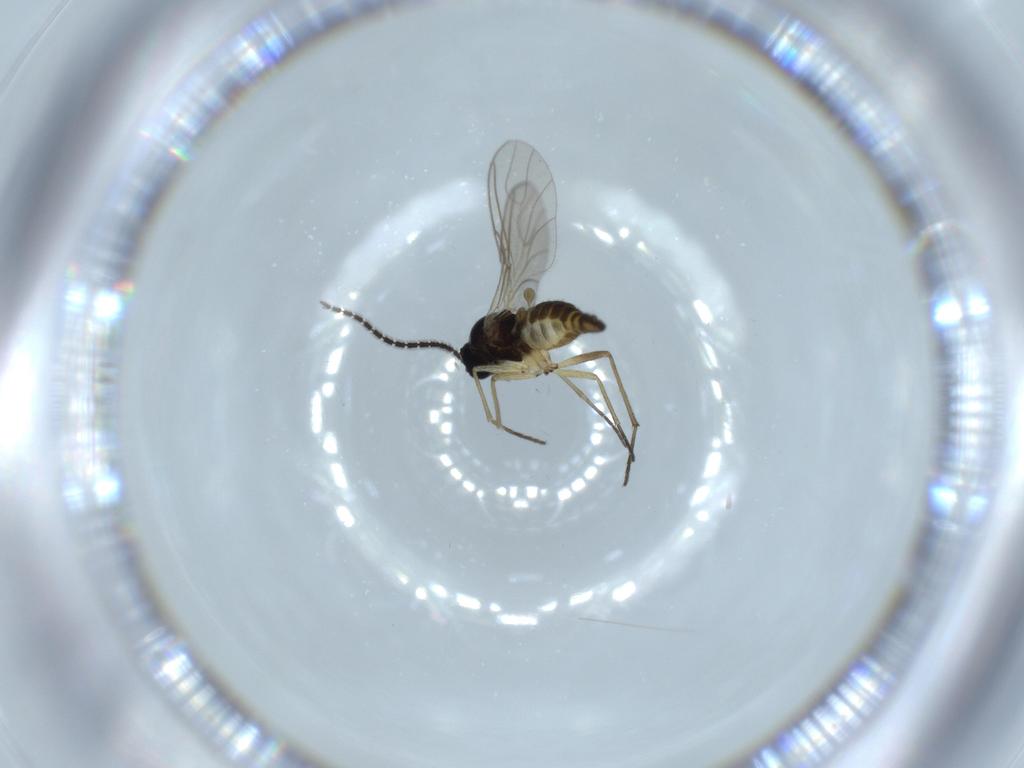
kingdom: Animalia
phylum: Arthropoda
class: Insecta
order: Diptera
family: Sciaridae
